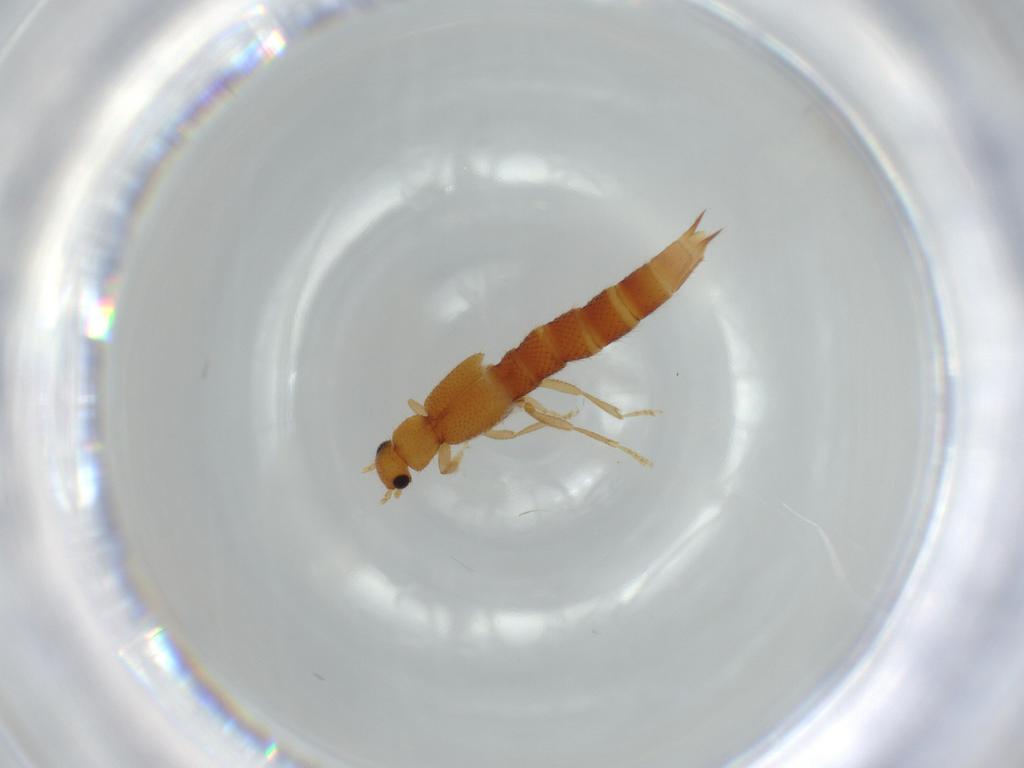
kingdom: Animalia
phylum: Arthropoda
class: Insecta
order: Coleoptera
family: Staphylinidae
